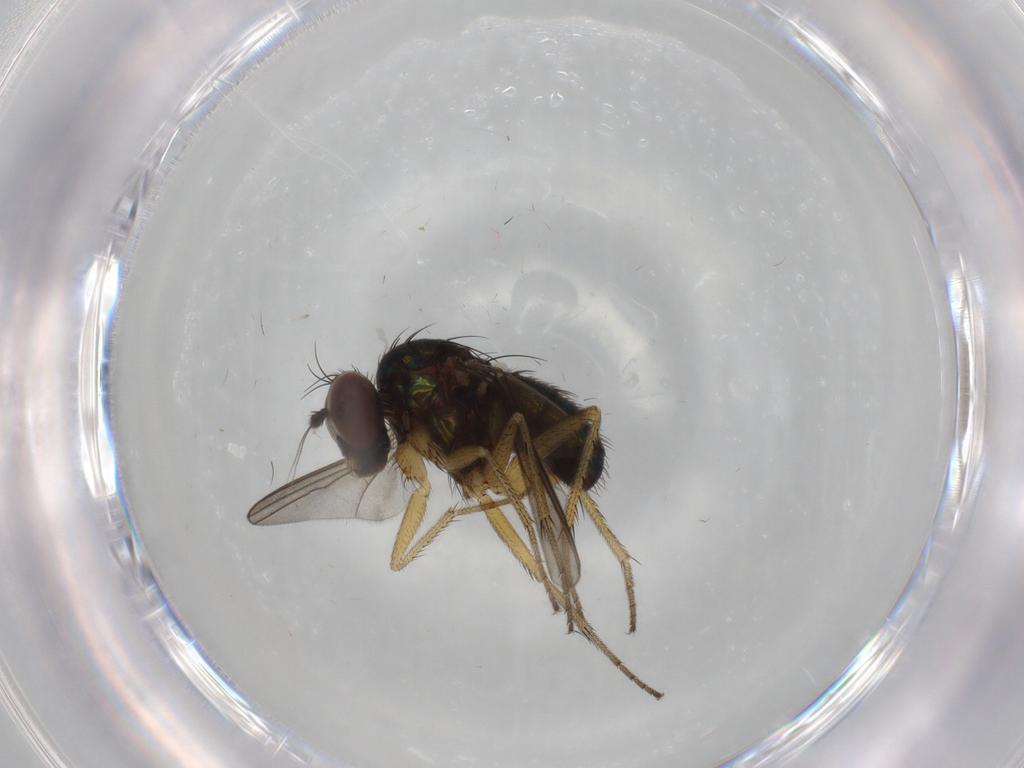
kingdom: Animalia
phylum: Arthropoda
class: Insecta
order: Diptera
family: Dolichopodidae
